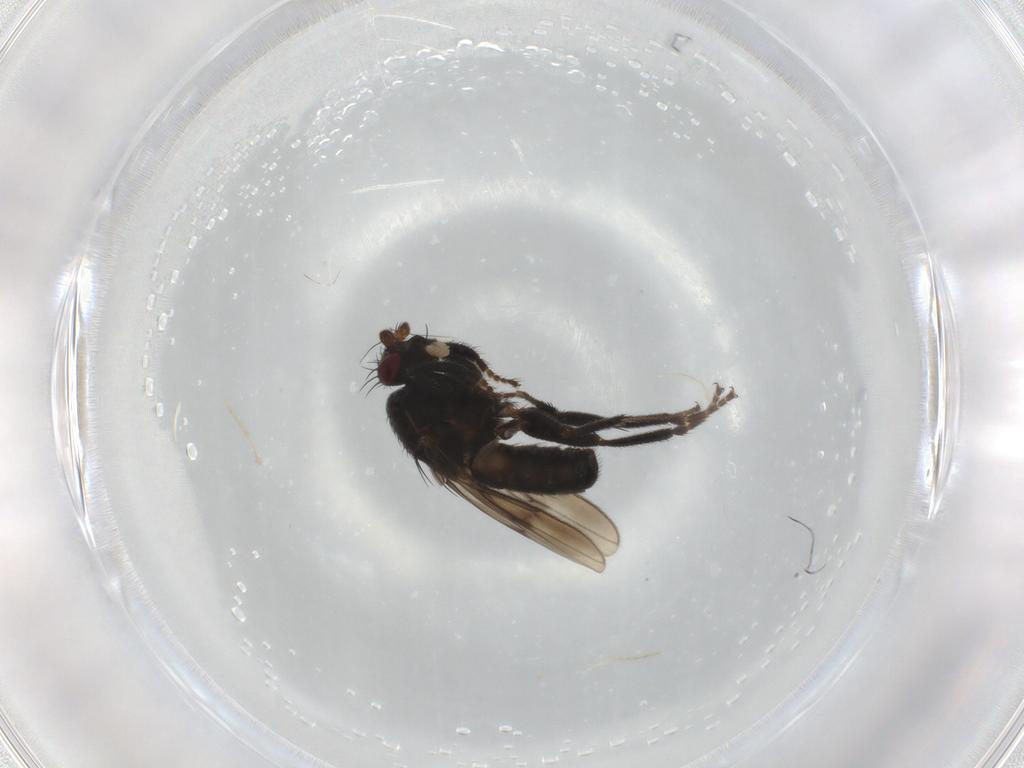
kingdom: Animalia
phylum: Arthropoda
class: Insecta
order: Diptera
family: Sphaeroceridae
